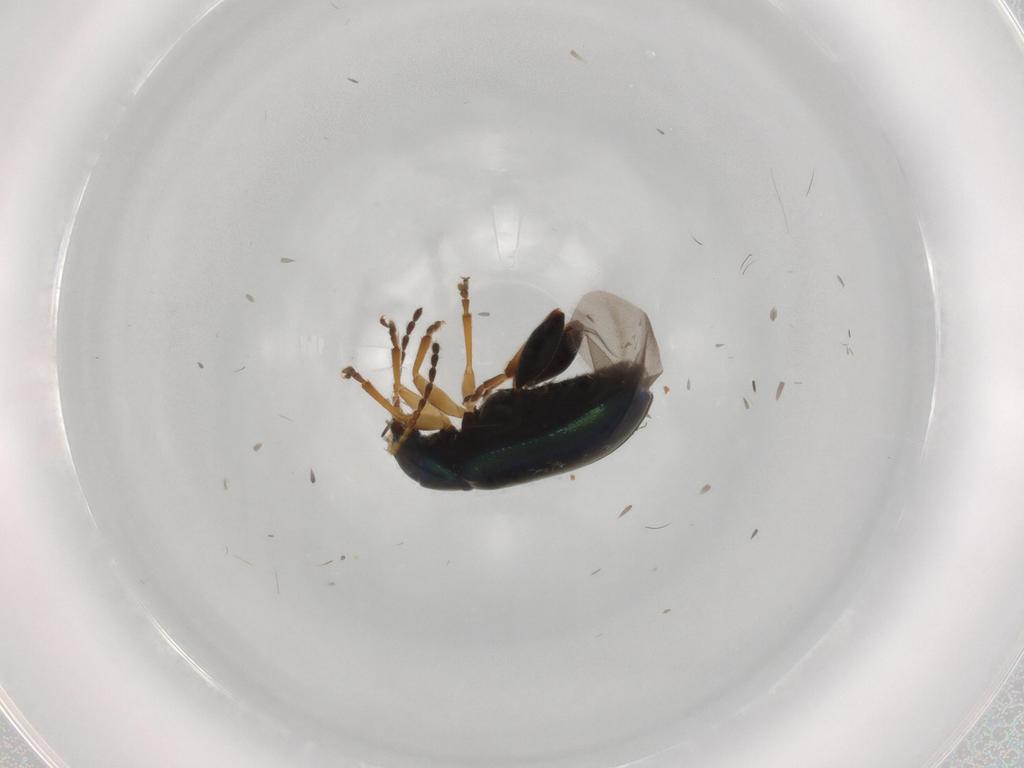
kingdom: Animalia
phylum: Arthropoda
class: Insecta
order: Coleoptera
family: Chrysomelidae
